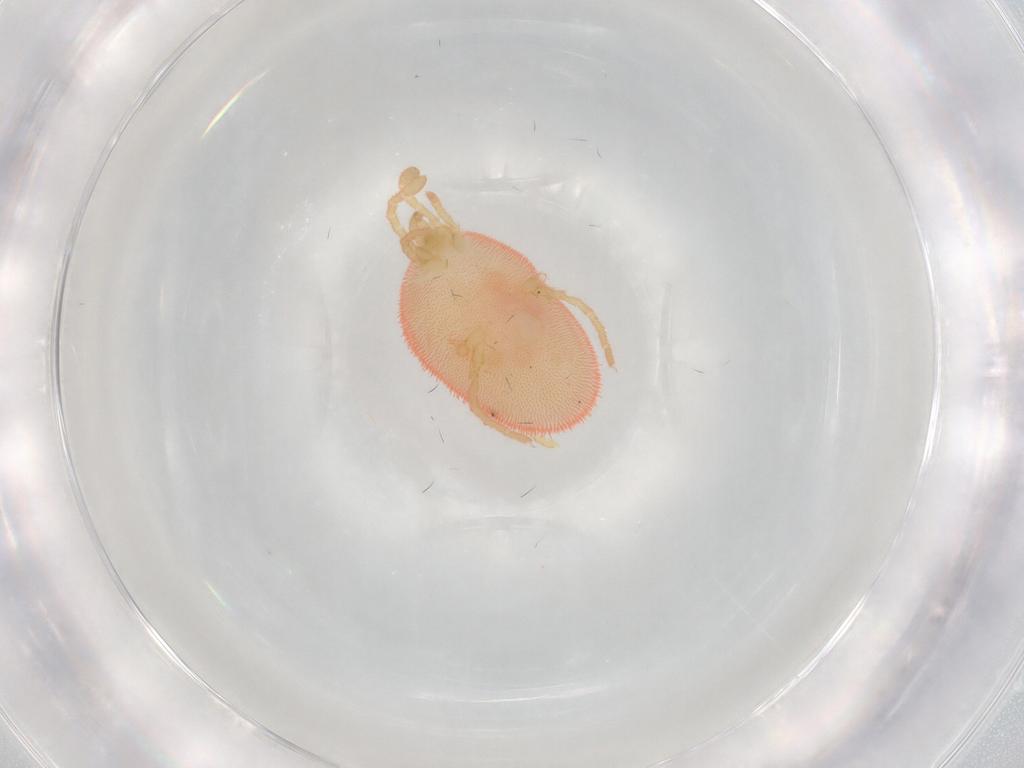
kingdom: Animalia
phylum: Arthropoda
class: Arachnida
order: Trombidiformes
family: Trombidiidae
